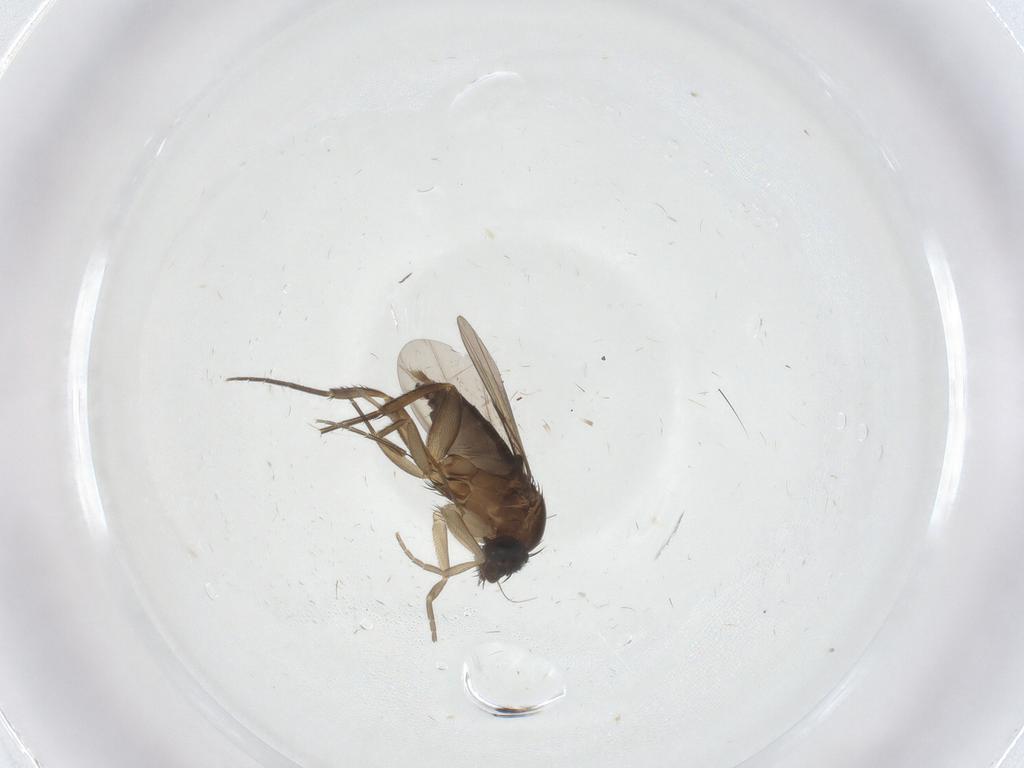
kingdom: Animalia
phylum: Arthropoda
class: Insecta
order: Diptera
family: Phoridae
